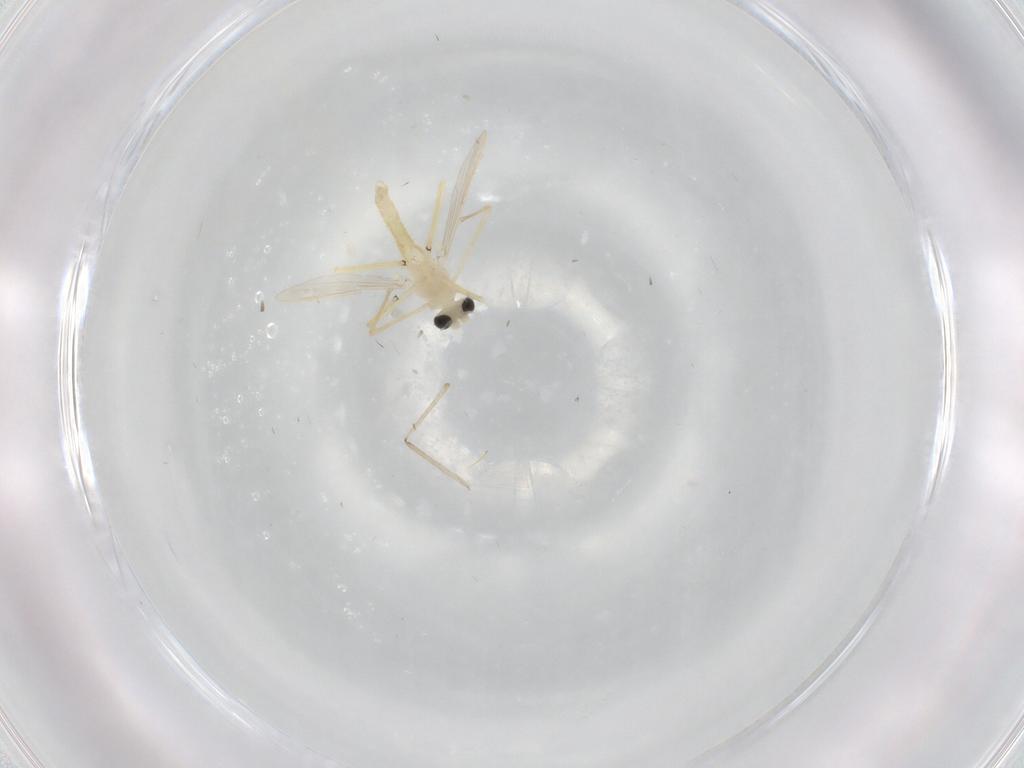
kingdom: Animalia
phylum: Arthropoda
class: Insecta
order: Diptera
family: Chironomidae
